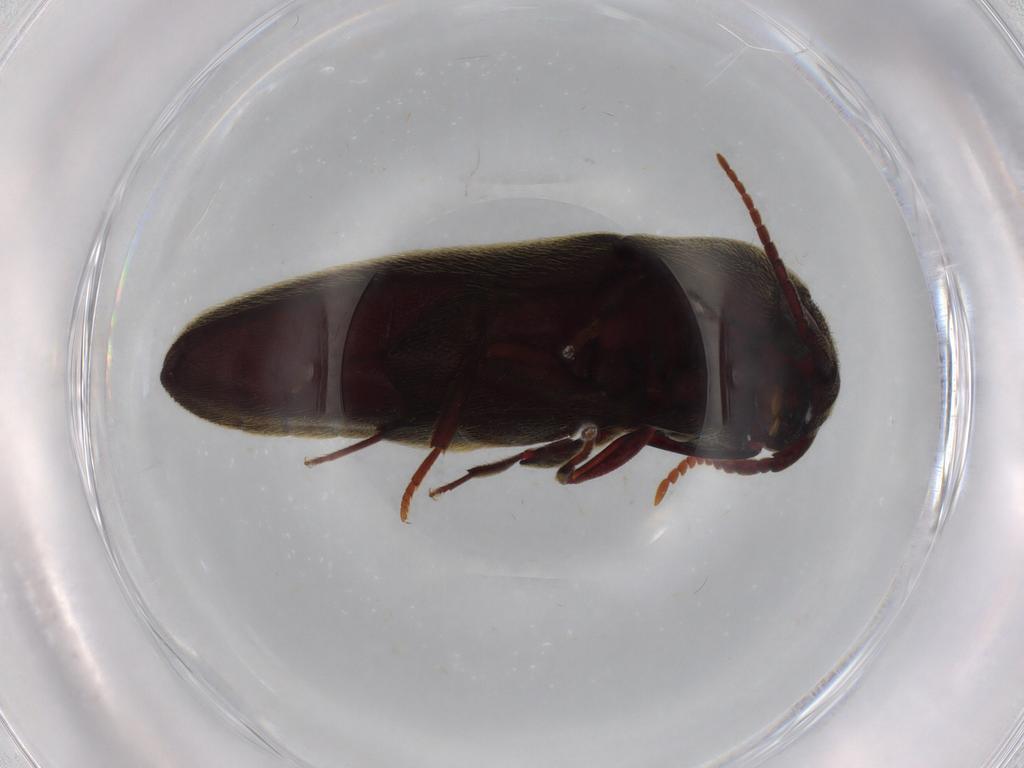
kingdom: Animalia
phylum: Arthropoda
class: Insecta
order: Coleoptera
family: Eucnemidae
